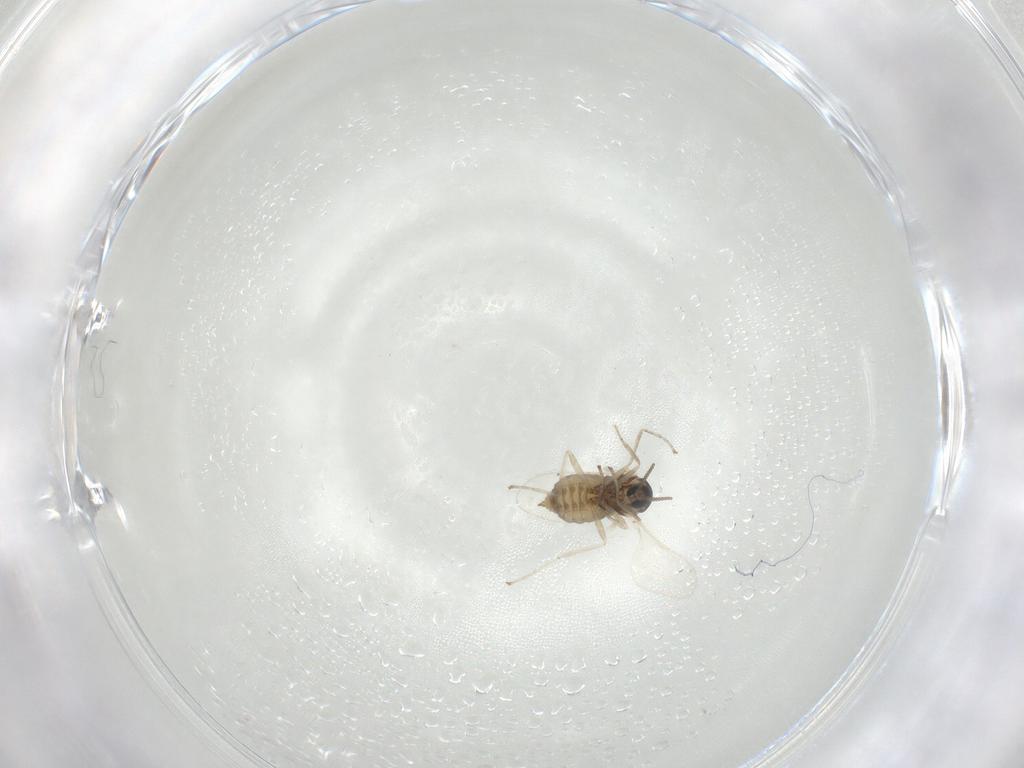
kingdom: Animalia
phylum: Arthropoda
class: Insecta
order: Diptera
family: Cecidomyiidae
